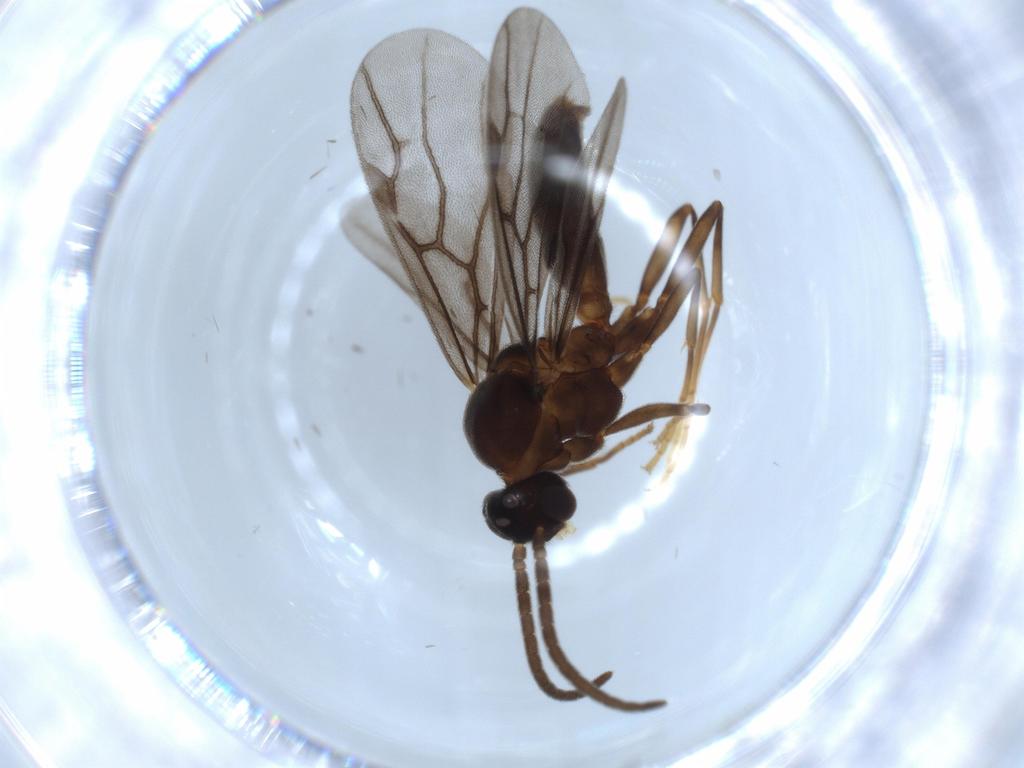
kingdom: Animalia
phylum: Arthropoda
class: Insecta
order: Hymenoptera
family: Formicidae
